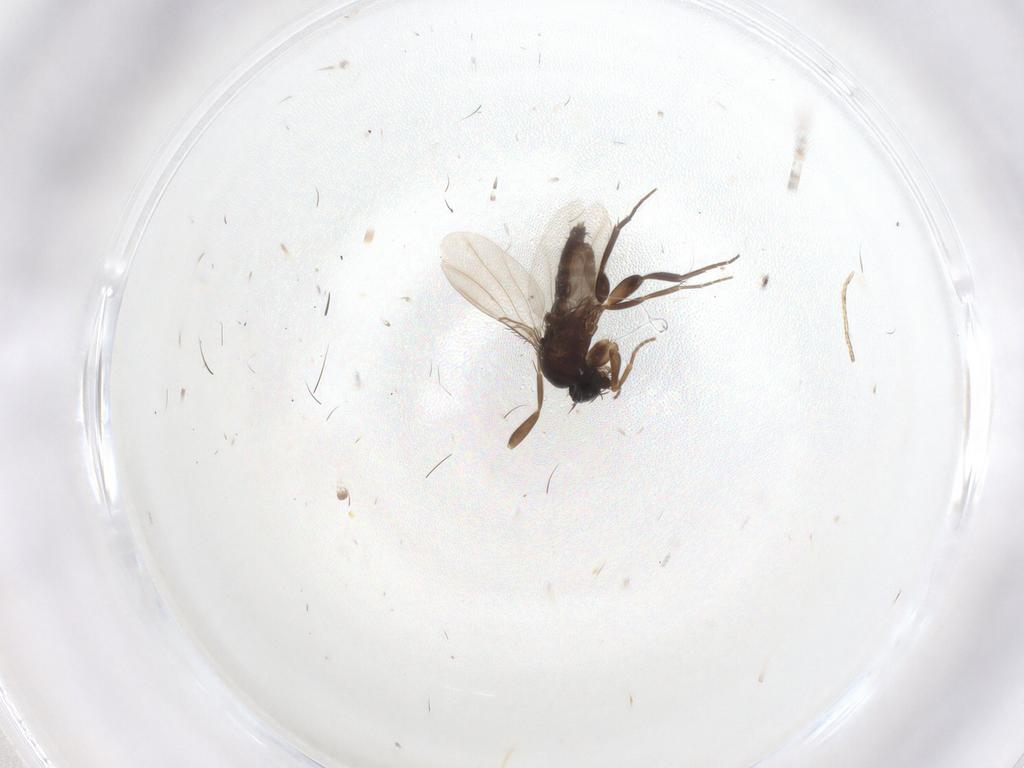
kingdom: Animalia
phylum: Arthropoda
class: Insecta
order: Diptera
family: Phoridae
